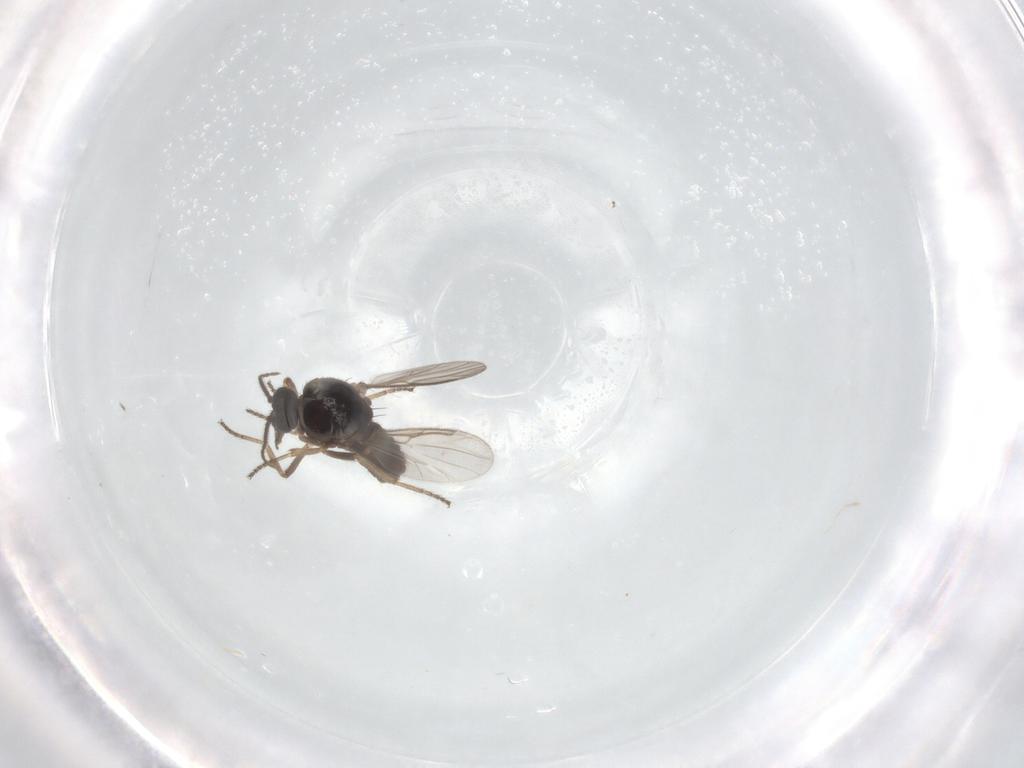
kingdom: Animalia
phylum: Arthropoda
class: Insecta
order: Diptera
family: Ceratopogonidae
